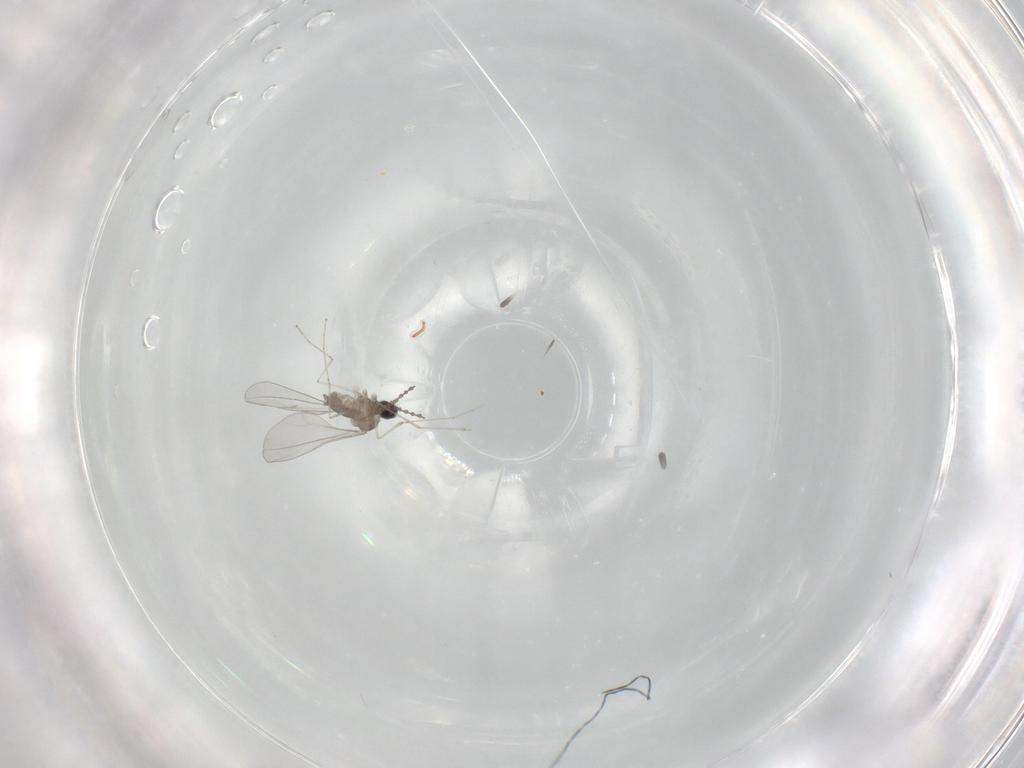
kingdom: Animalia
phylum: Arthropoda
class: Insecta
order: Diptera
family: Cecidomyiidae
